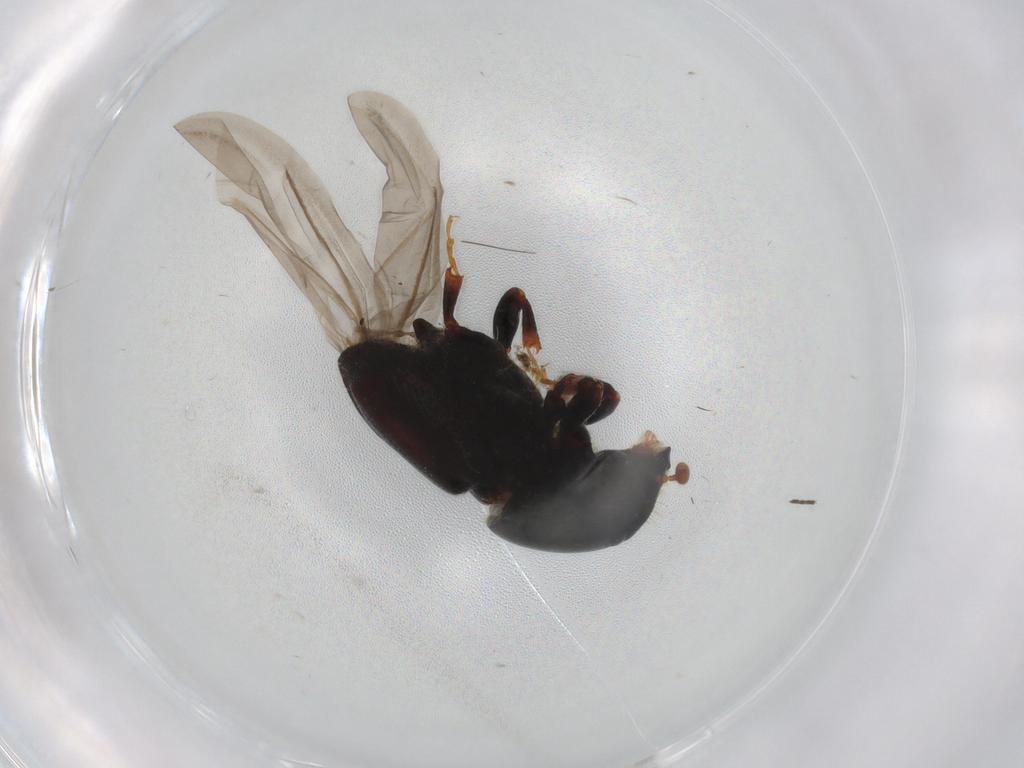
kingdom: Animalia
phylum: Arthropoda
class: Insecta
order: Coleoptera
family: Curculionidae
